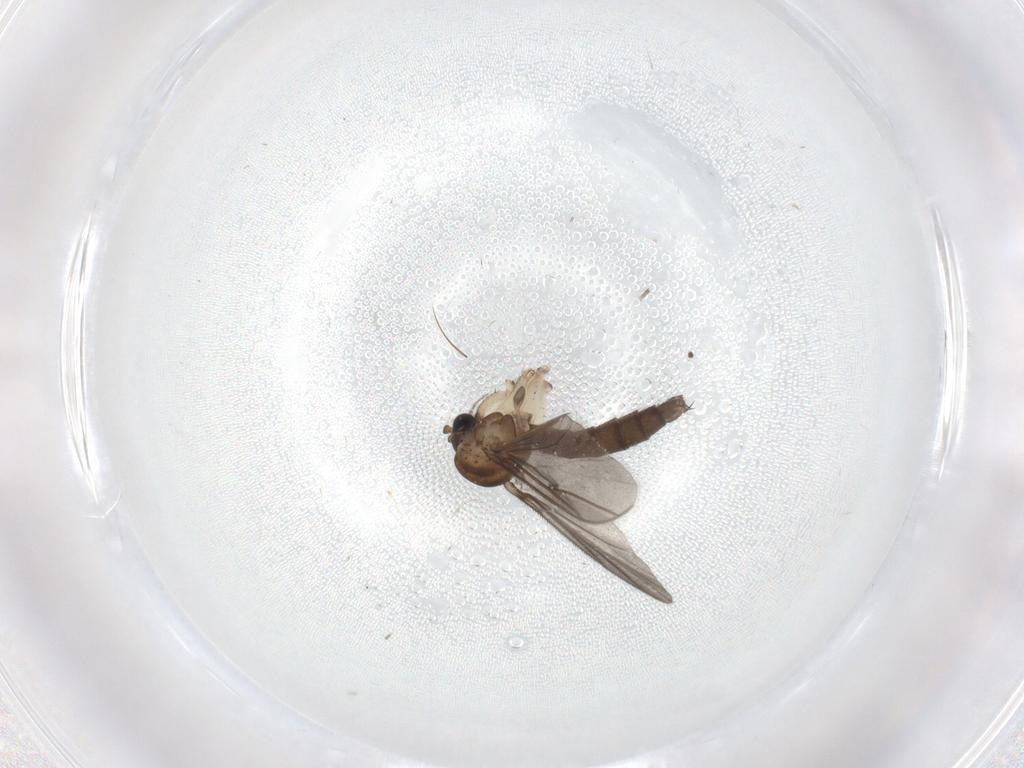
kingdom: Animalia
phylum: Arthropoda
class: Insecta
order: Diptera
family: Mycetophilidae
